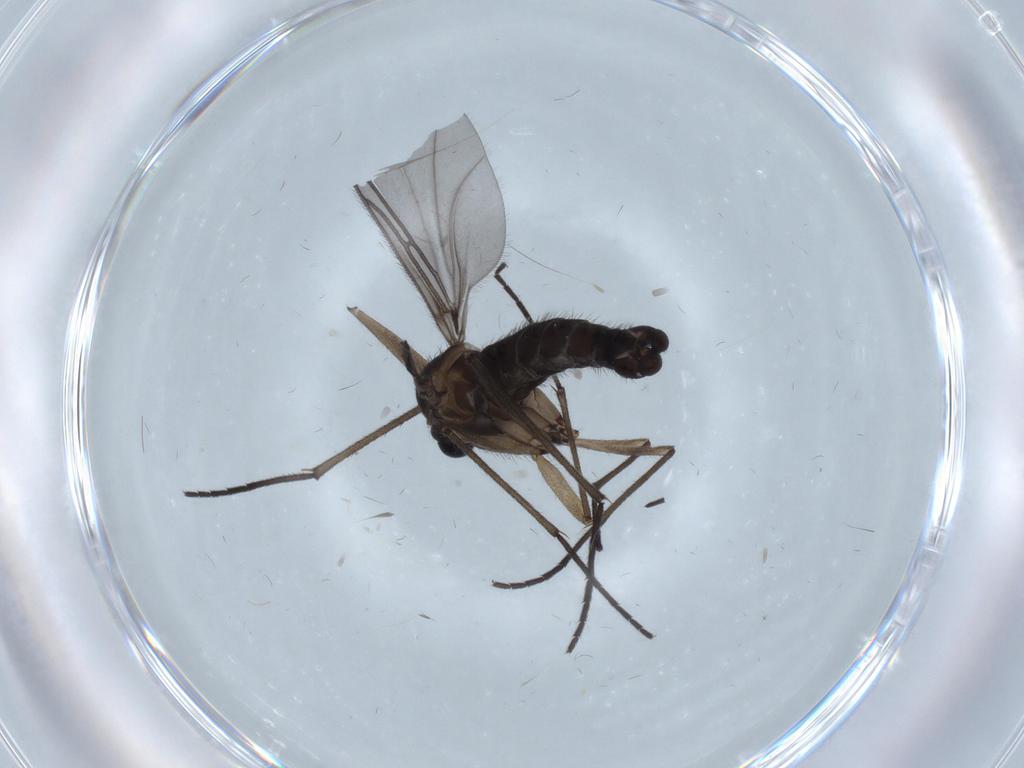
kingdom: Animalia
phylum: Arthropoda
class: Insecta
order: Diptera
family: Sciaridae
